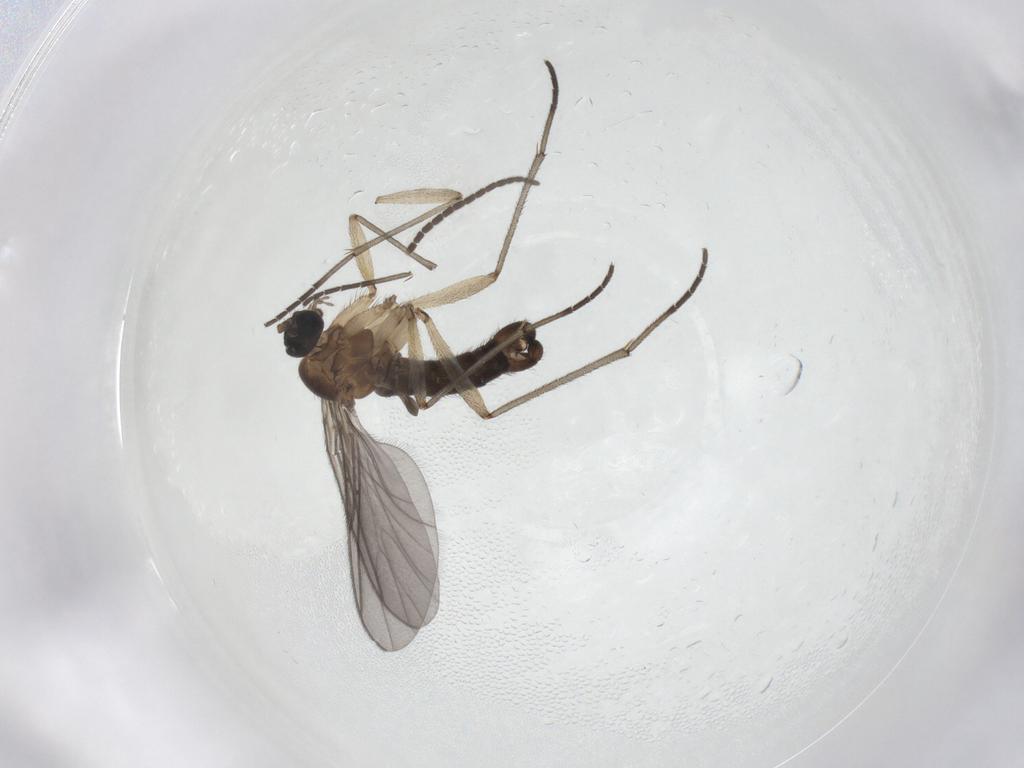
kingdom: Animalia
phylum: Arthropoda
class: Insecta
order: Diptera
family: Sciaridae
